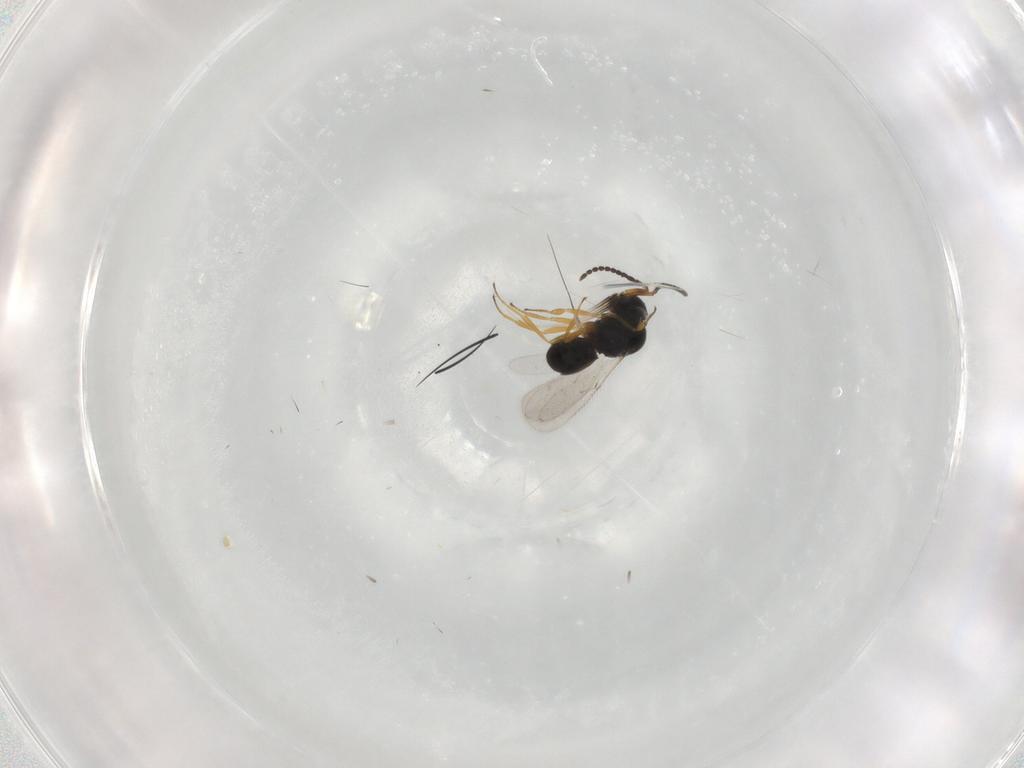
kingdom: Animalia
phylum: Arthropoda
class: Insecta
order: Hymenoptera
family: Scelionidae
